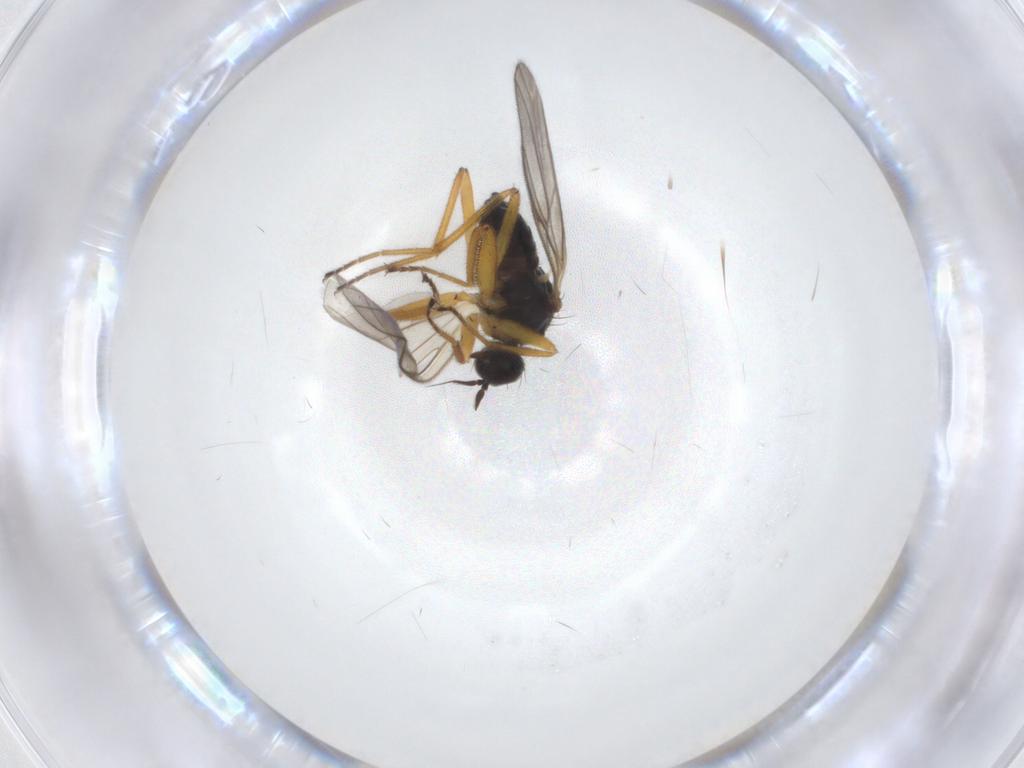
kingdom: Animalia
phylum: Arthropoda
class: Insecta
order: Diptera
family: Hybotidae
